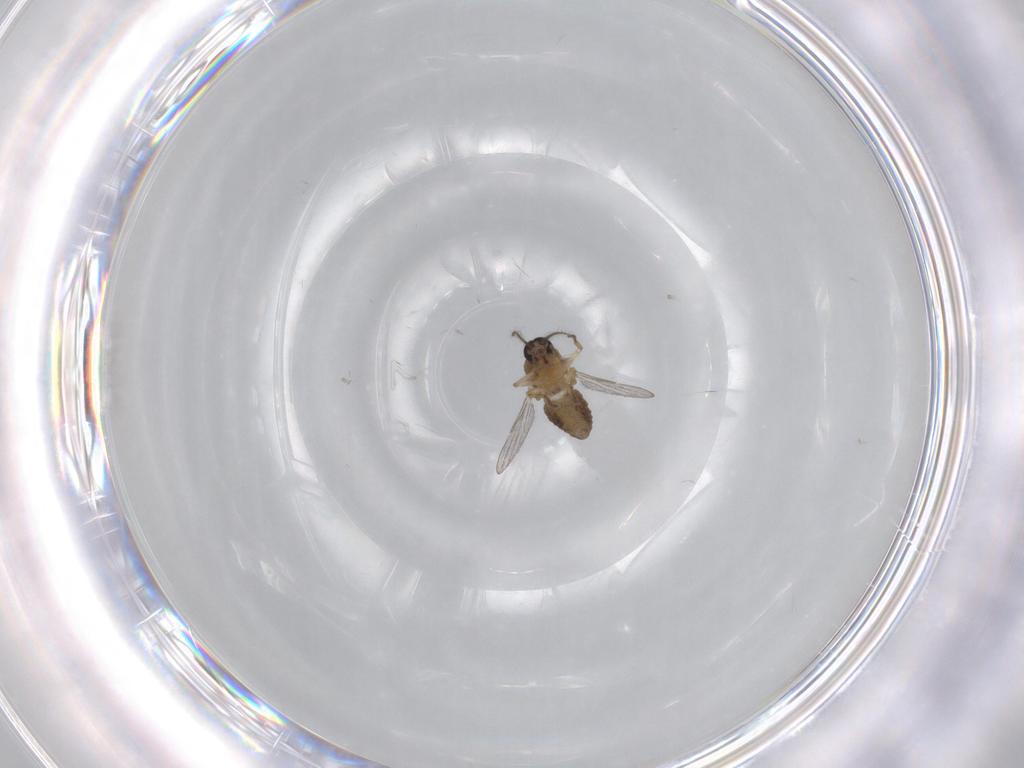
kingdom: Animalia
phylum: Arthropoda
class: Insecta
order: Diptera
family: Ceratopogonidae
